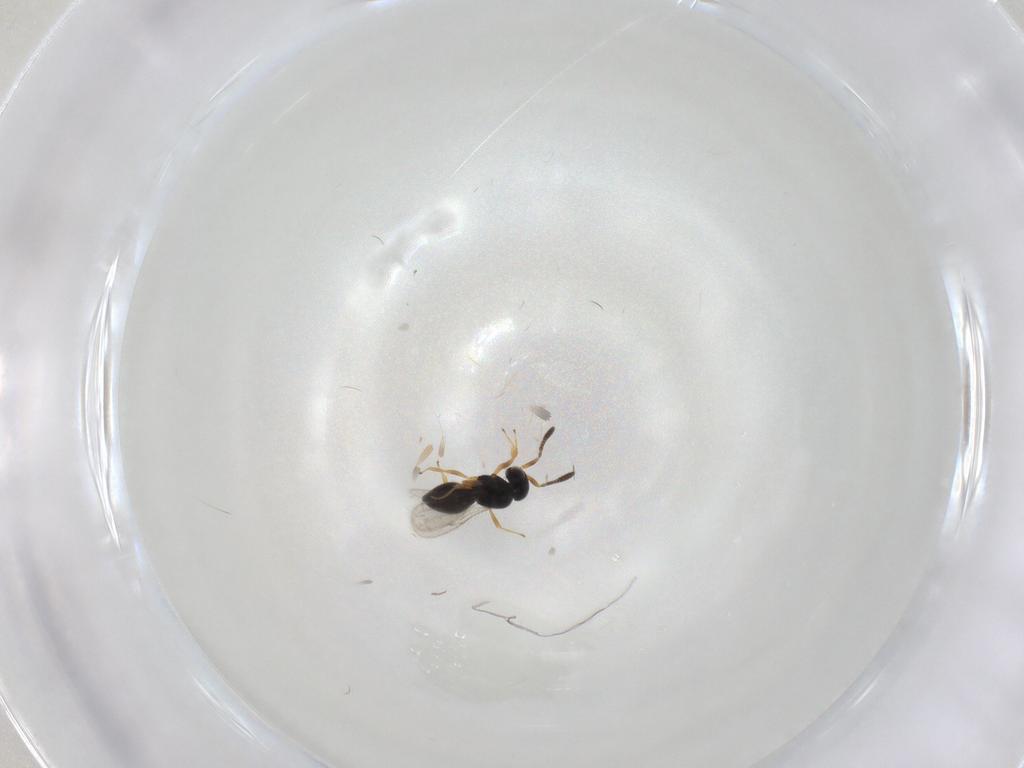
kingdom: Animalia
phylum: Arthropoda
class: Insecta
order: Hymenoptera
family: Scelionidae
